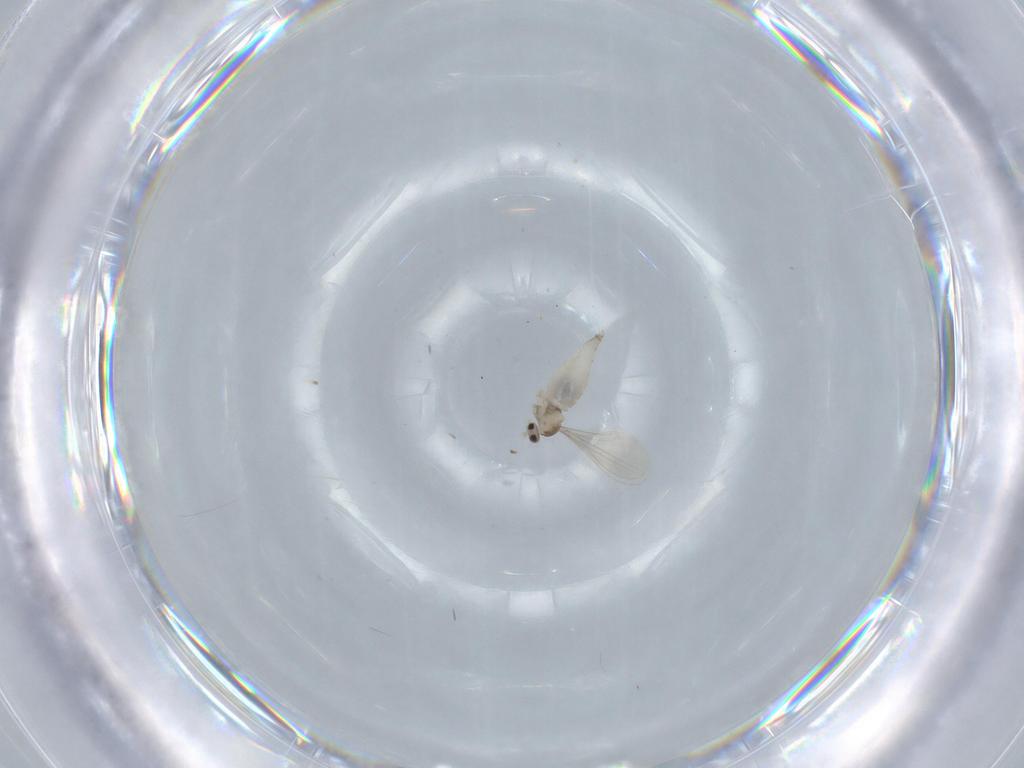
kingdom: Animalia
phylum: Arthropoda
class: Insecta
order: Diptera
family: Cecidomyiidae
